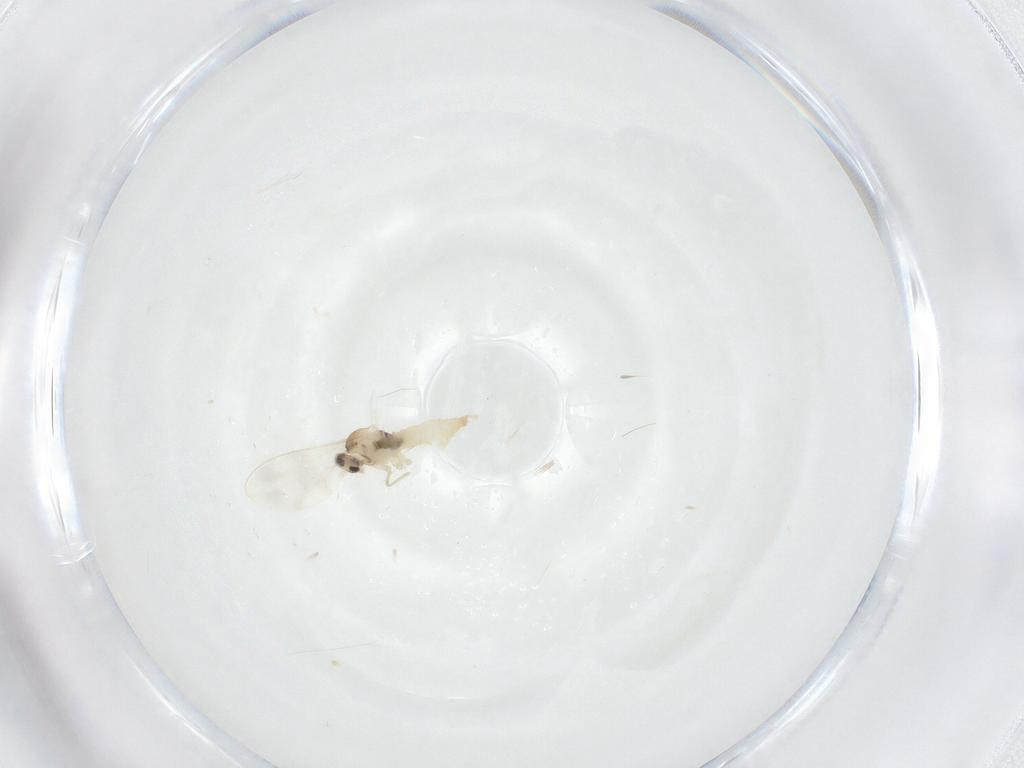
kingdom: Animalia
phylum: Arthropoda
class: Insecta
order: Diptera
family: Cecidomyiidae
